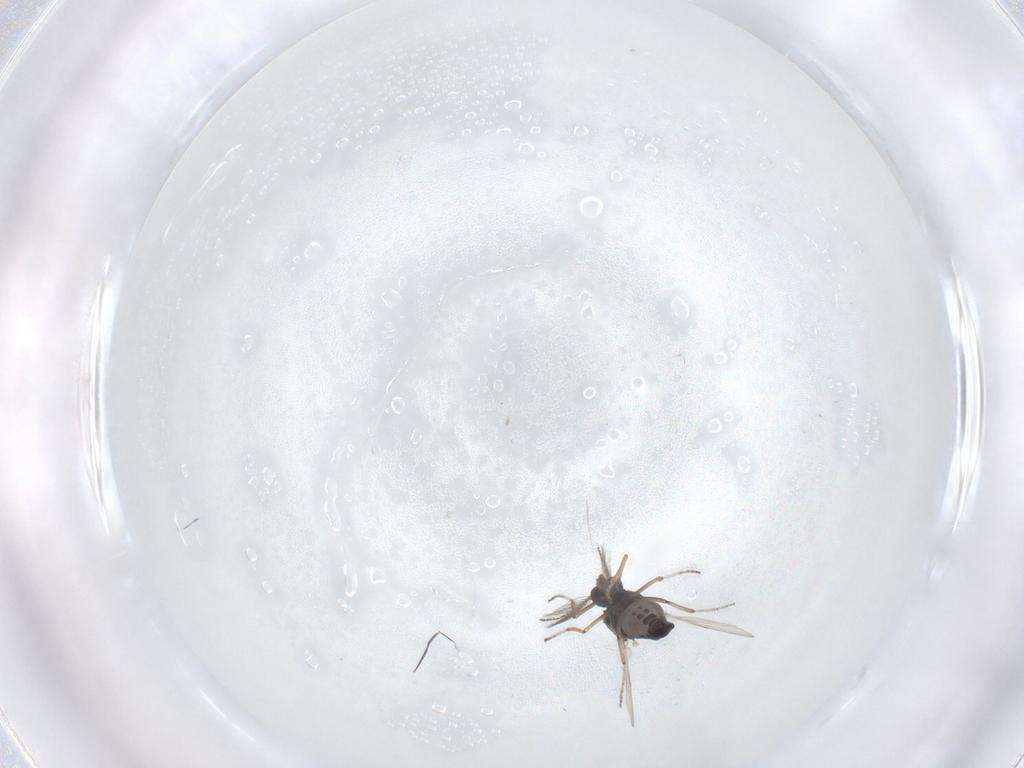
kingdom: Animalia
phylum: Arthropoda
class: Insecta
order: Diptera
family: Ceratopogonidae
